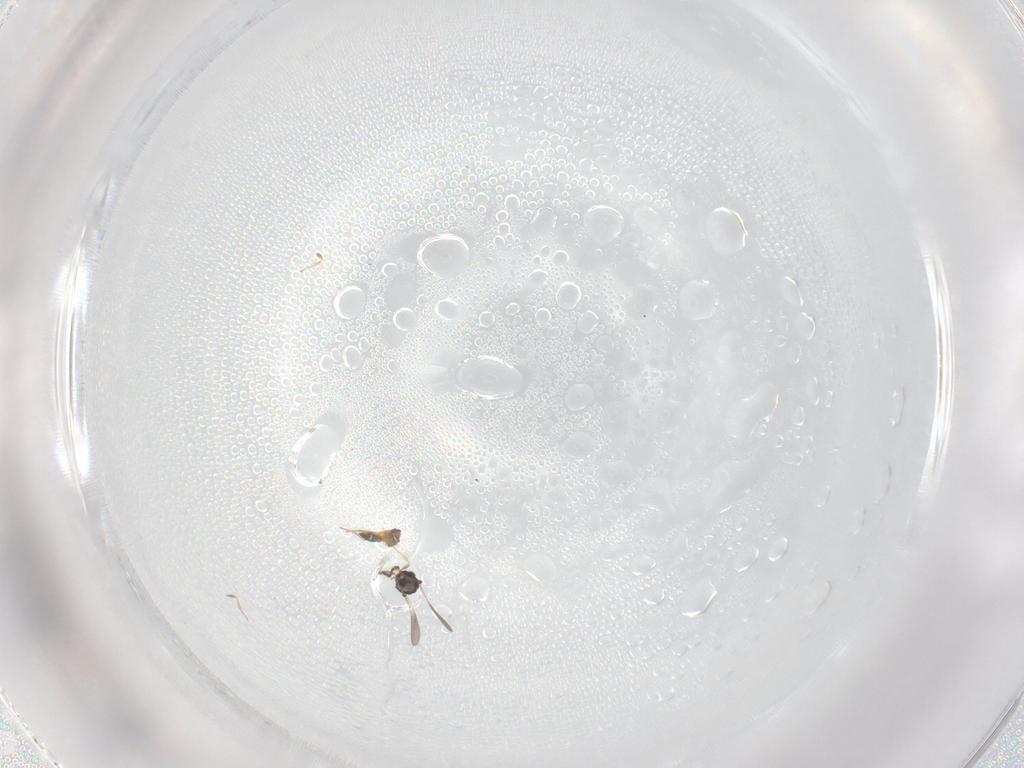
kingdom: Animalia
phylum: Arthropoda
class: Insecta
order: Hymenoptera
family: Platygastridae
